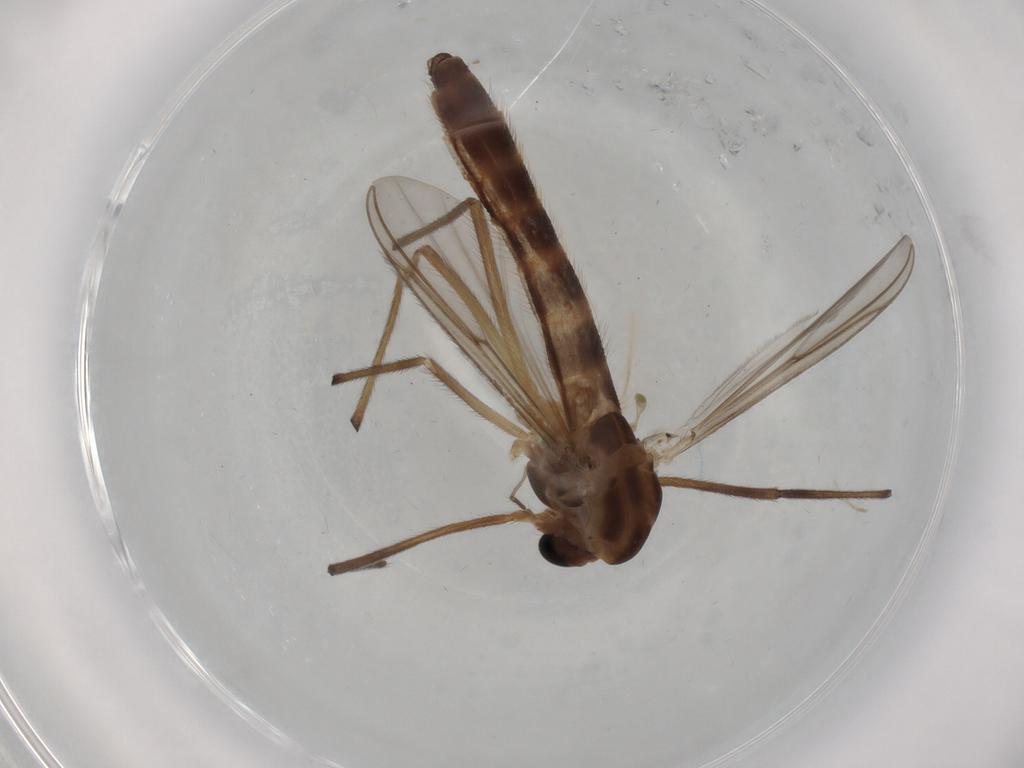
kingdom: Animalia
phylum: Arthropoda
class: Insecta
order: Diptera
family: Chironomidae
